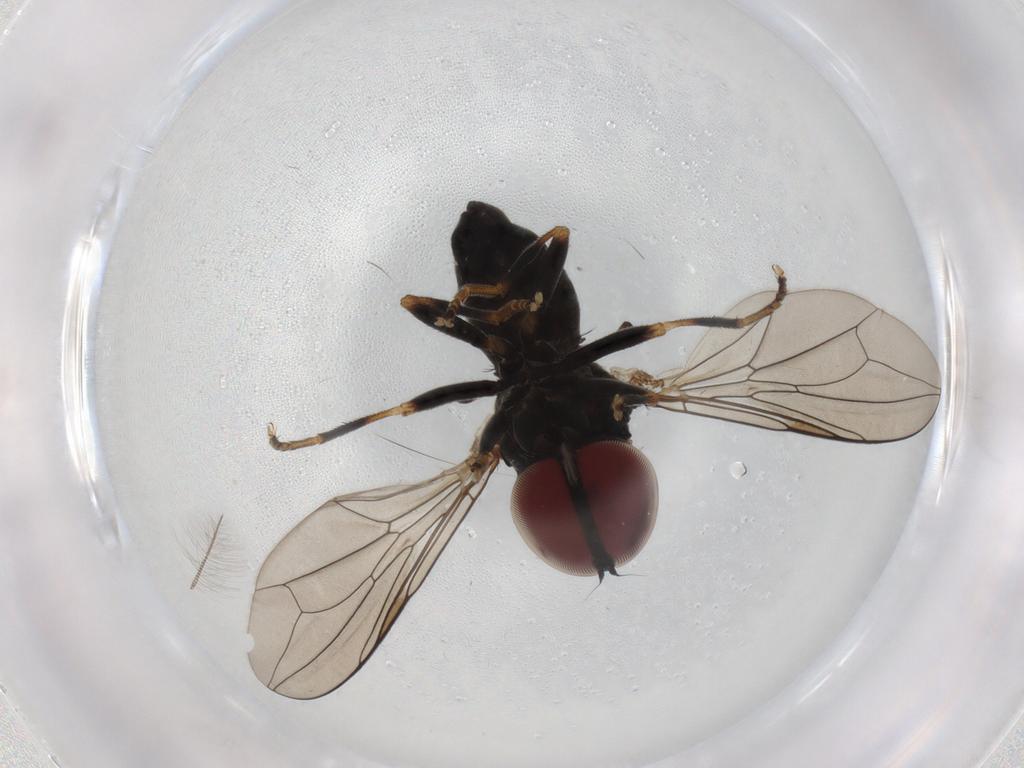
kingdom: Animalia
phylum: Arthropoda
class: Insecta
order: Diptera
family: Pipunculidae
